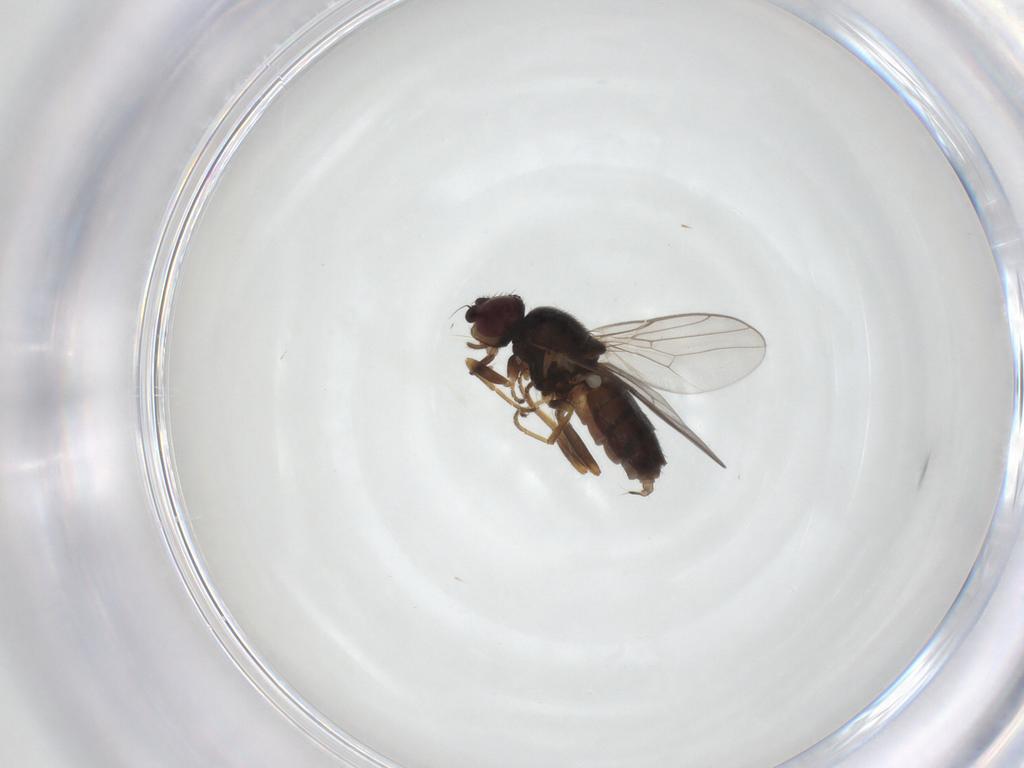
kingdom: Animalia
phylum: Arthropoda
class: Insecta
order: Diptera
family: Chloropidae
